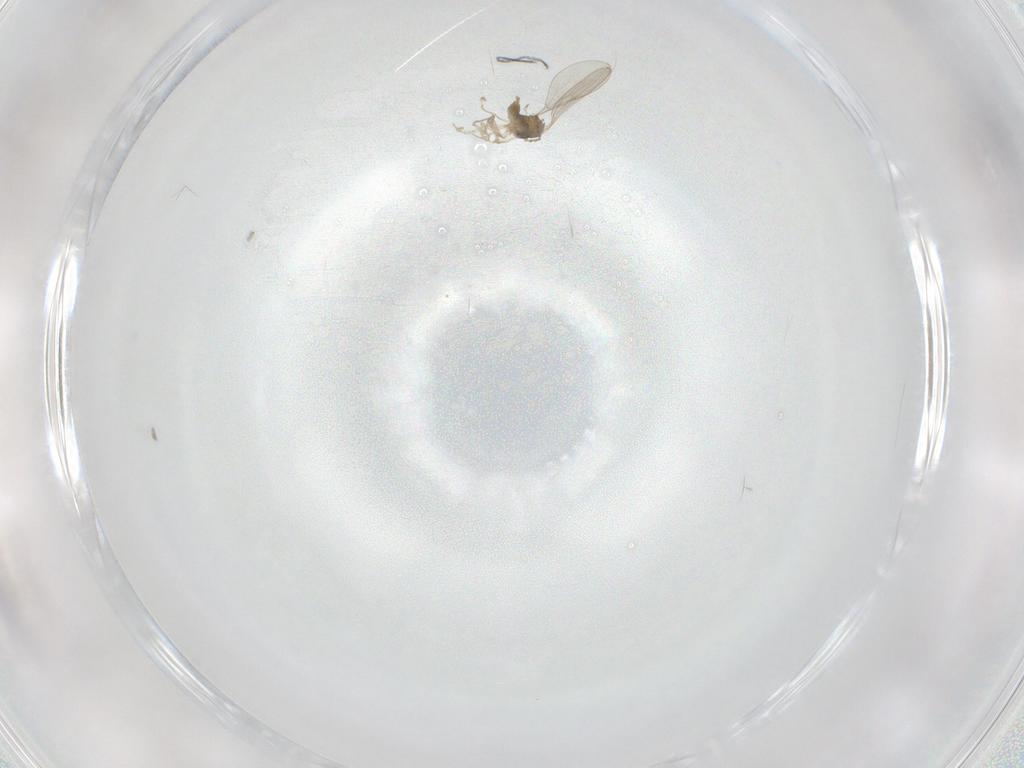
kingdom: Animalia
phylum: Arthropoda
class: Insecta
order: Diptera
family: Cecidomyiidae
